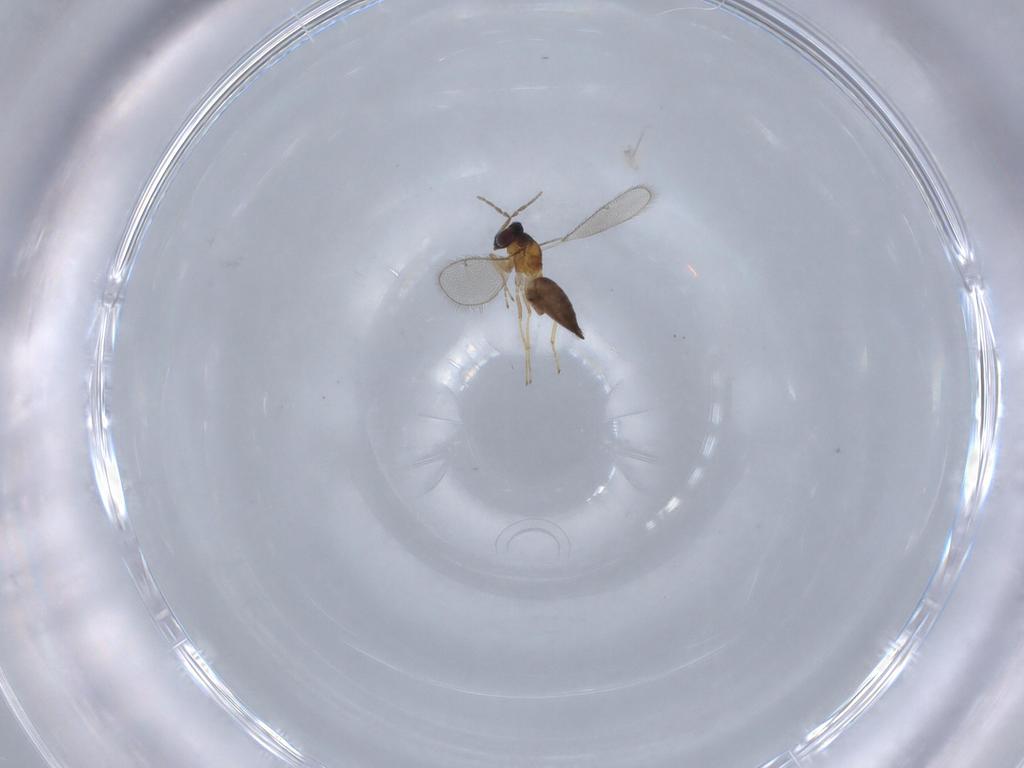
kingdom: Animalia
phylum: Arthropoda
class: Insecta
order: Hymenoptera
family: Eulophidae
